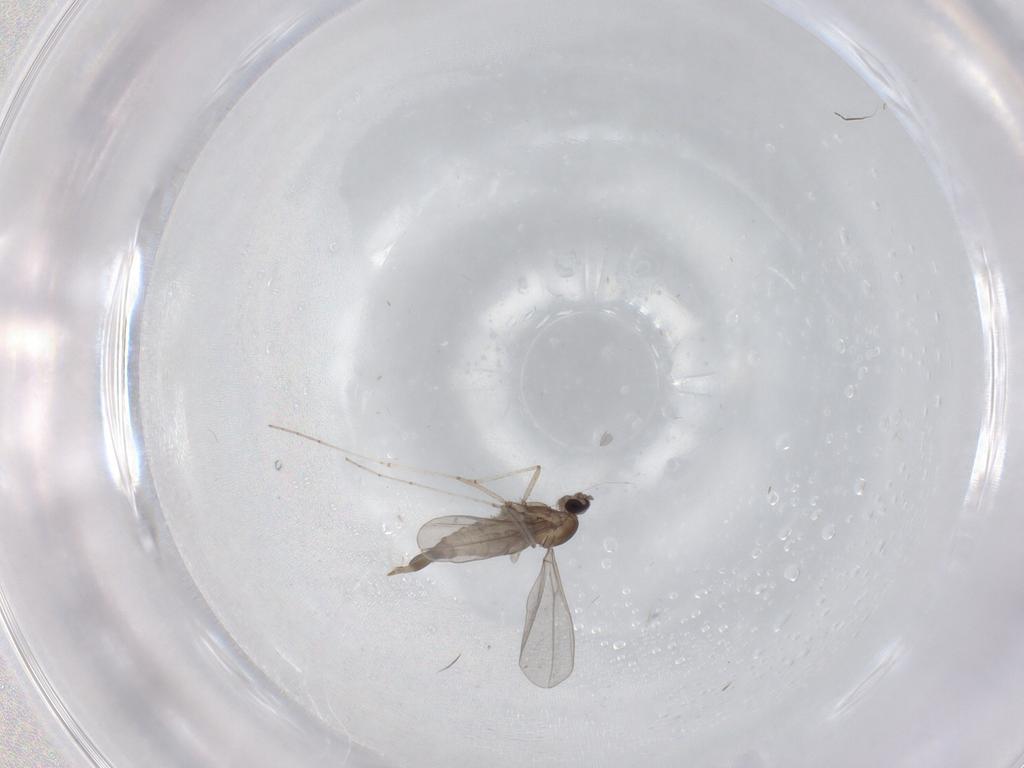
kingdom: Animalia
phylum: Arthropoda
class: Insecta
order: Diptera
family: Cecidomyiidae
